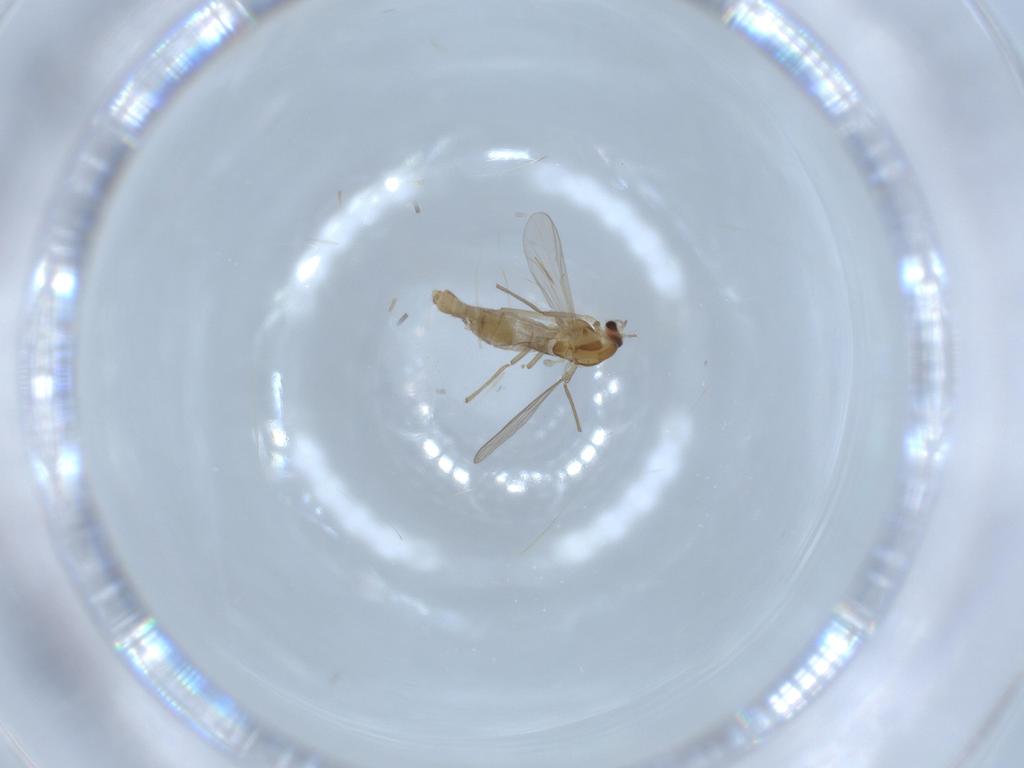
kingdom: Animalia
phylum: Arthropoda
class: Insecta
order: Diptera
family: Chironomidae
